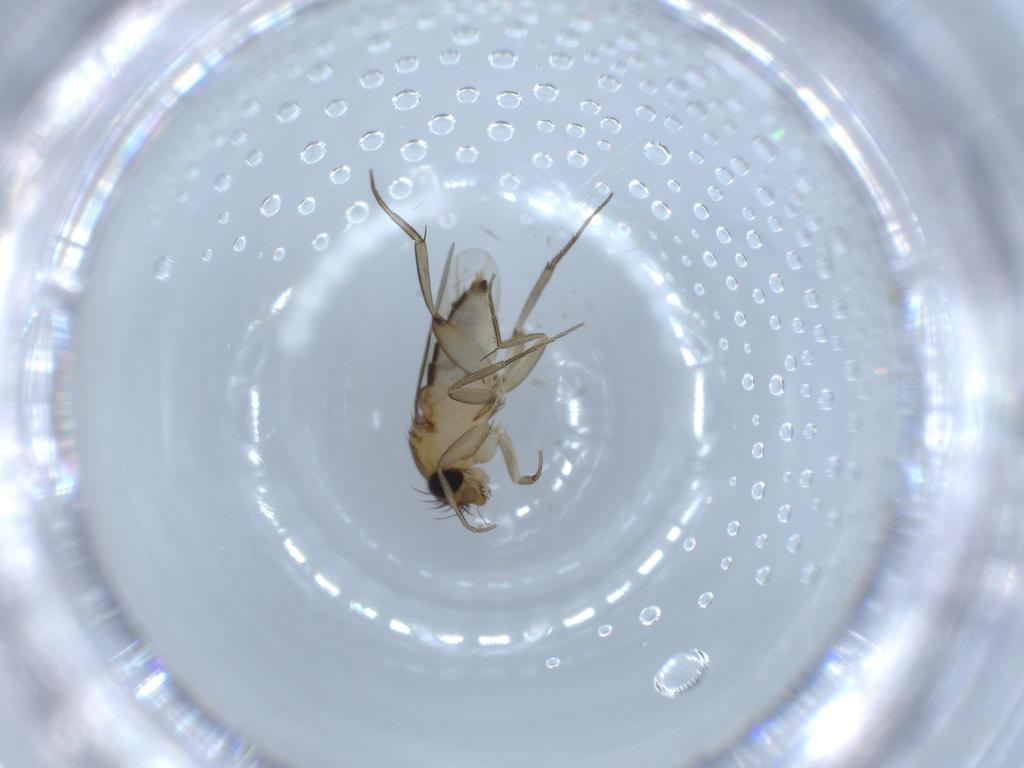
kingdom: Animalia
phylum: Arthropoda
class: Insecta
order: Diptera
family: Phoridae
